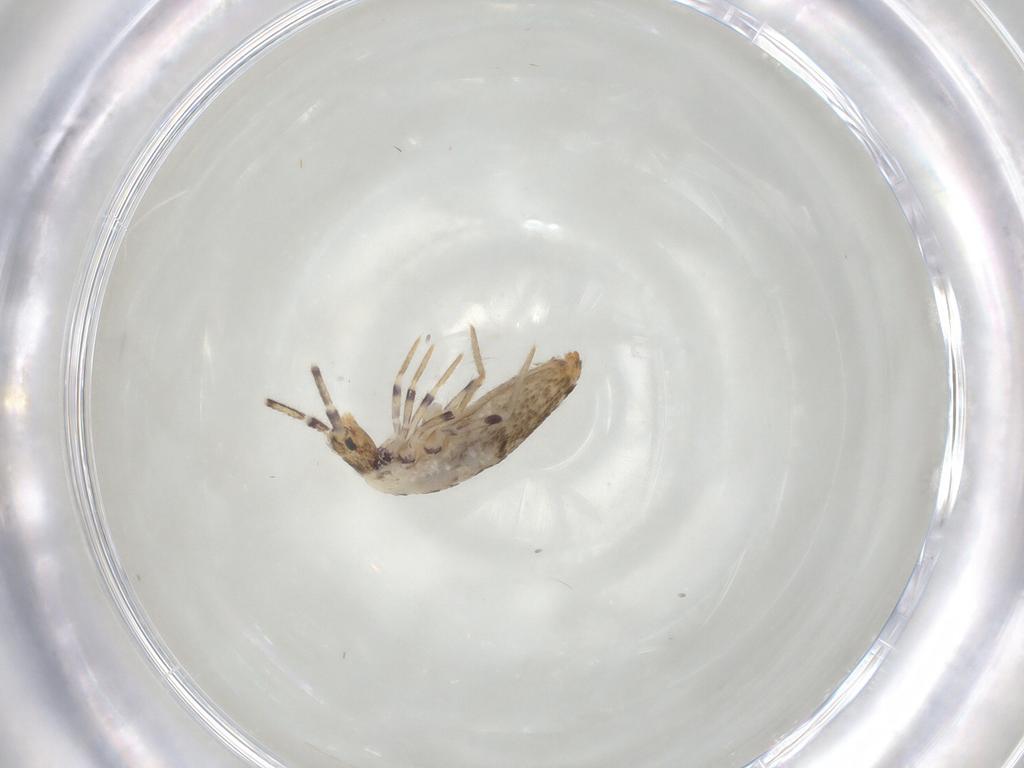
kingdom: Animalia
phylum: Arthropoda
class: Collembola
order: Entomobryomorpha
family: Entomobryidae
